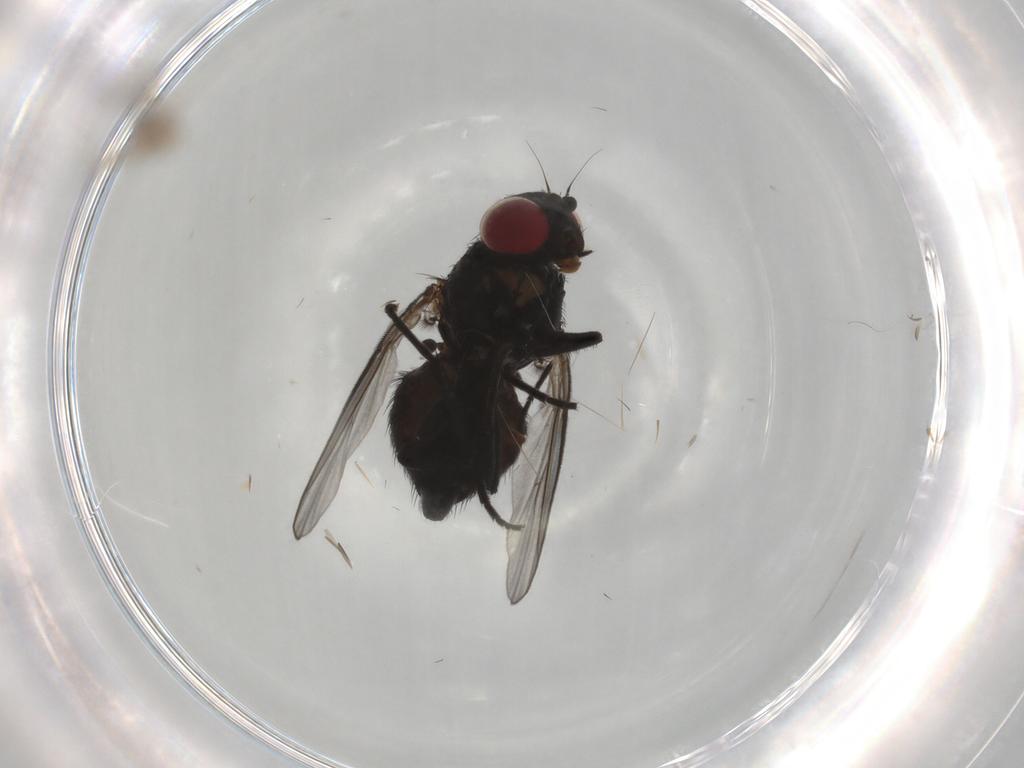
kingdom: Animalia
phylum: Arthropoda
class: Insecta
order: Diptera
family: Agromyzidae
